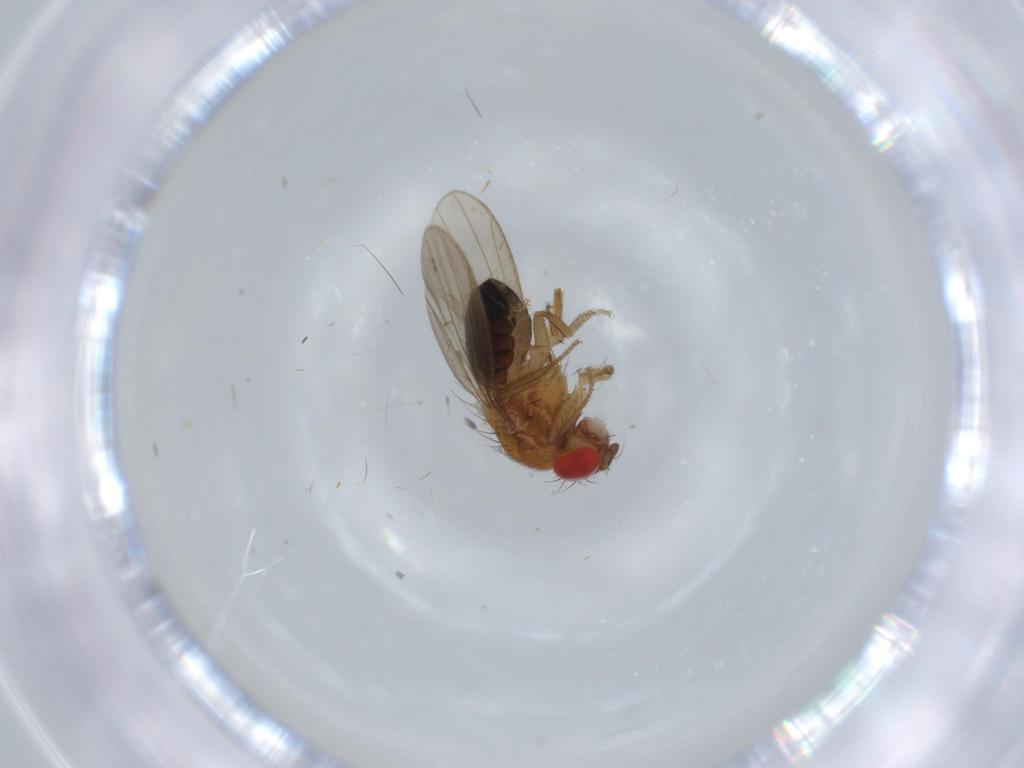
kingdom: Animalia
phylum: Arthropoda
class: Insecta
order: Diptera
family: Drosophilidae
